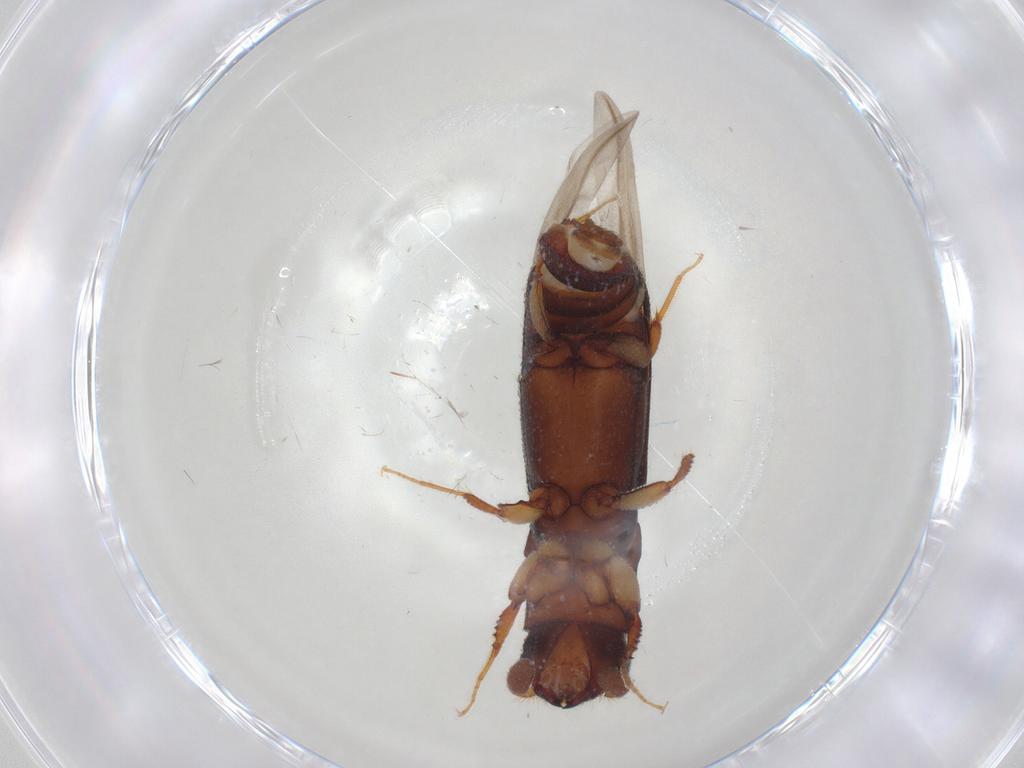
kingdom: Animalia
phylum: Arthropoda
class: Insecta
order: Coleoptera
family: Curculionidae
